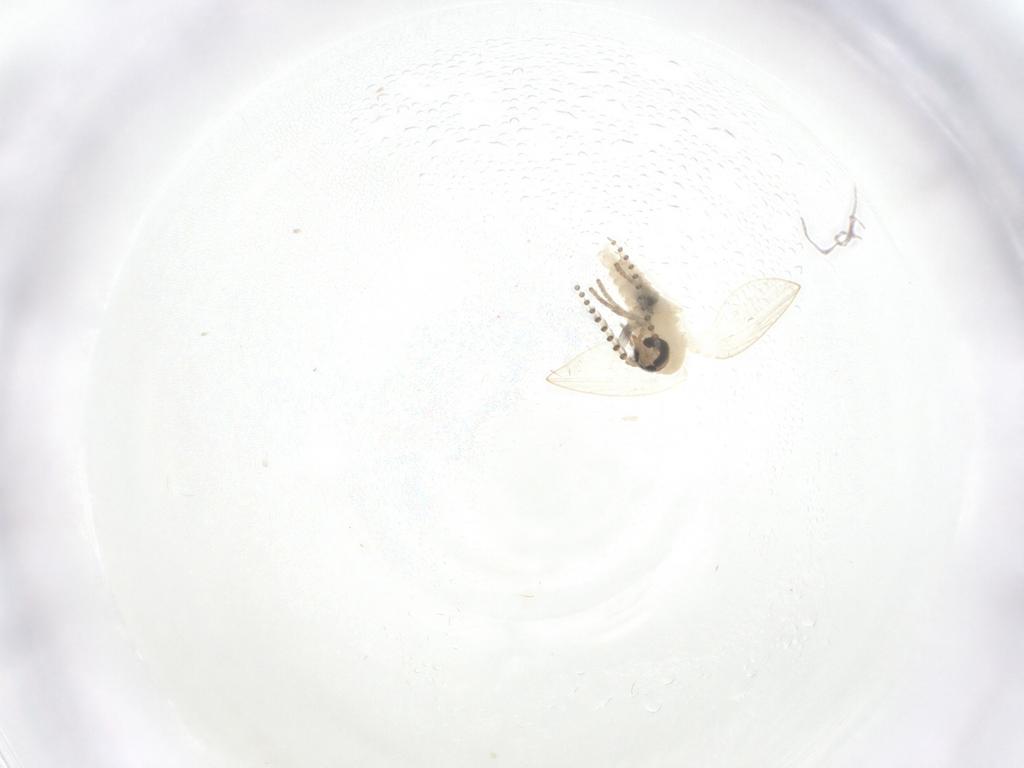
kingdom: Animalia
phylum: Arthropoda
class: Insecta
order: Diptera
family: Psychodidae
